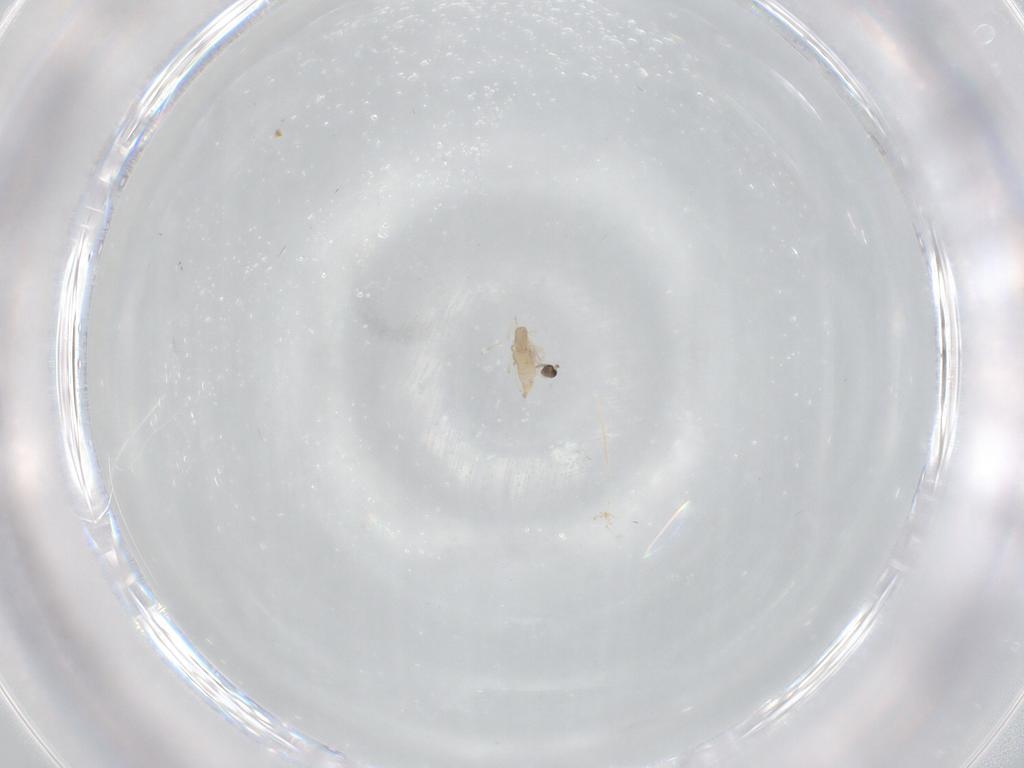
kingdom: Animalia
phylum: Arthropoda
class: Insecta
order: Diptera
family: Cecidomyiidae
